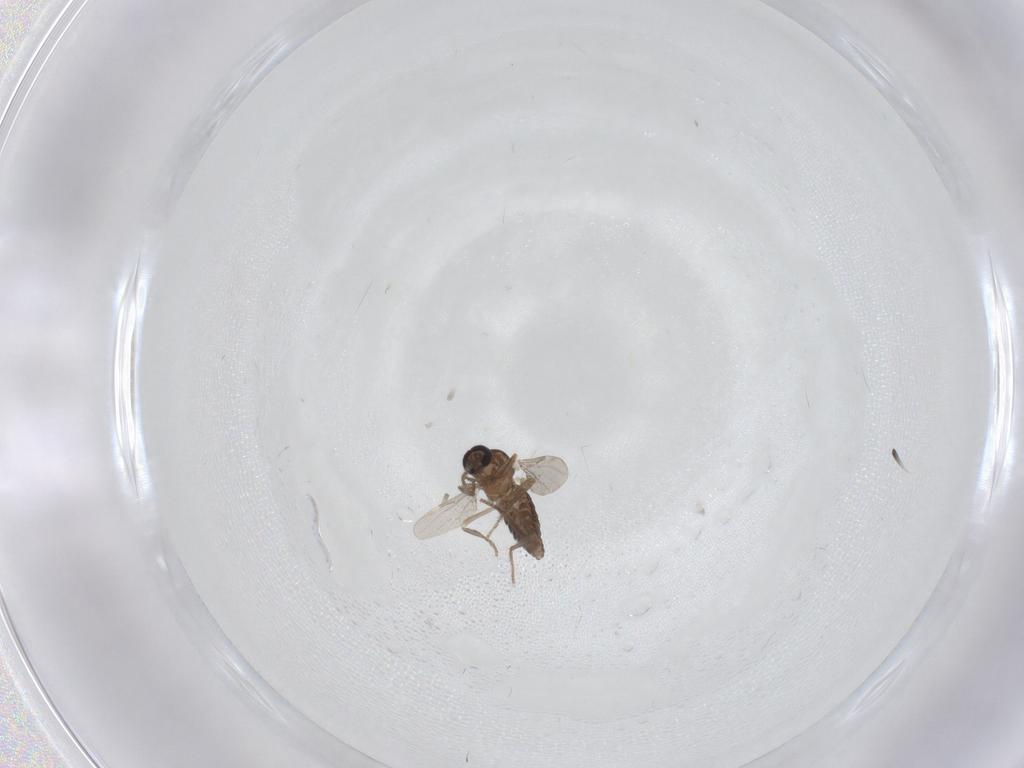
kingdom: Animalia
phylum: Arthropoda
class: Insecta
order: Diptera
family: Ceratopogonidae
